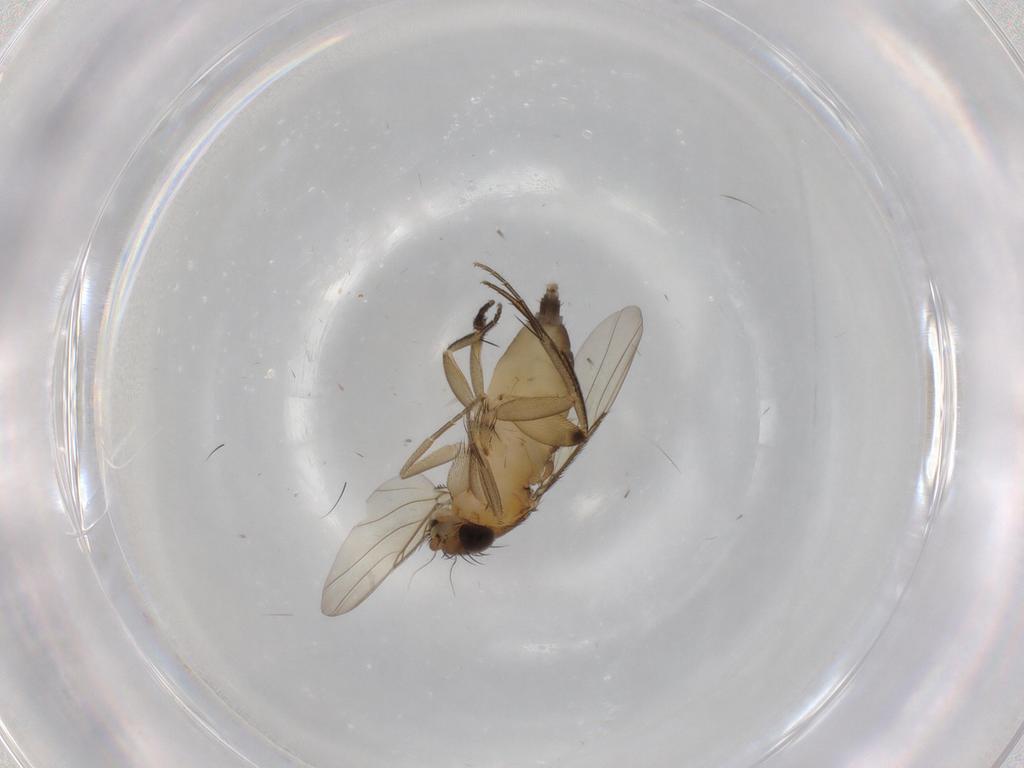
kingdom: Animalia
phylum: Arthropoda
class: Insecta
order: Diptera
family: Phoridae
